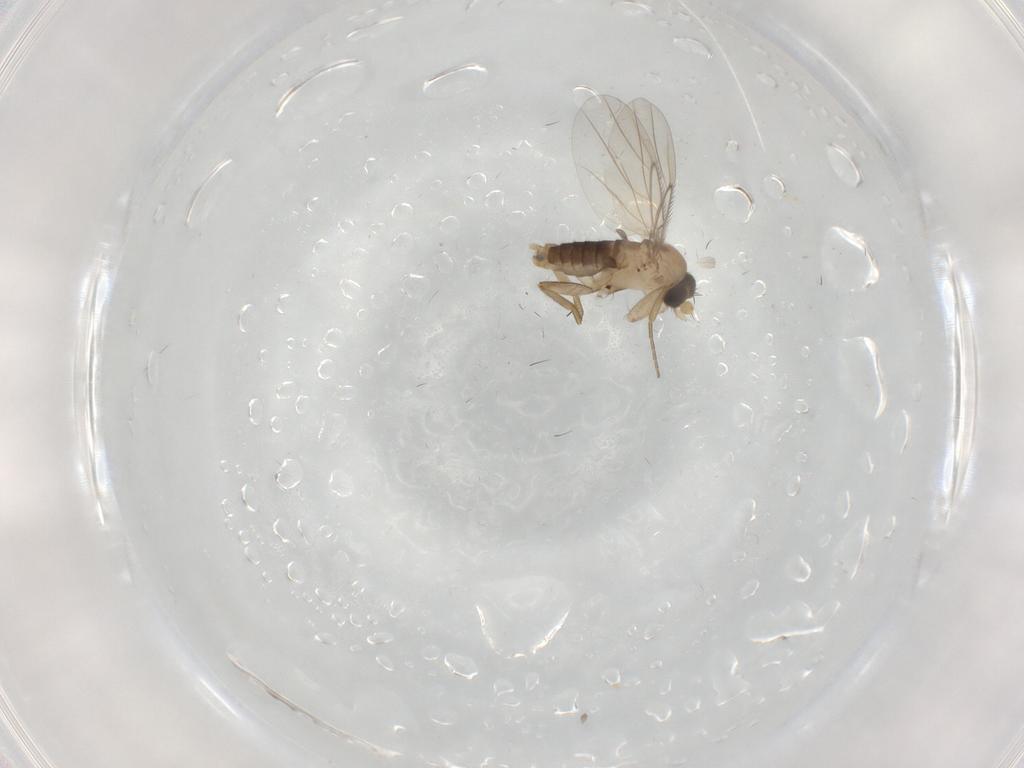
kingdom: Animalia
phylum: Arthropoda
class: Insecta
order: Diptera
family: Phoridae
